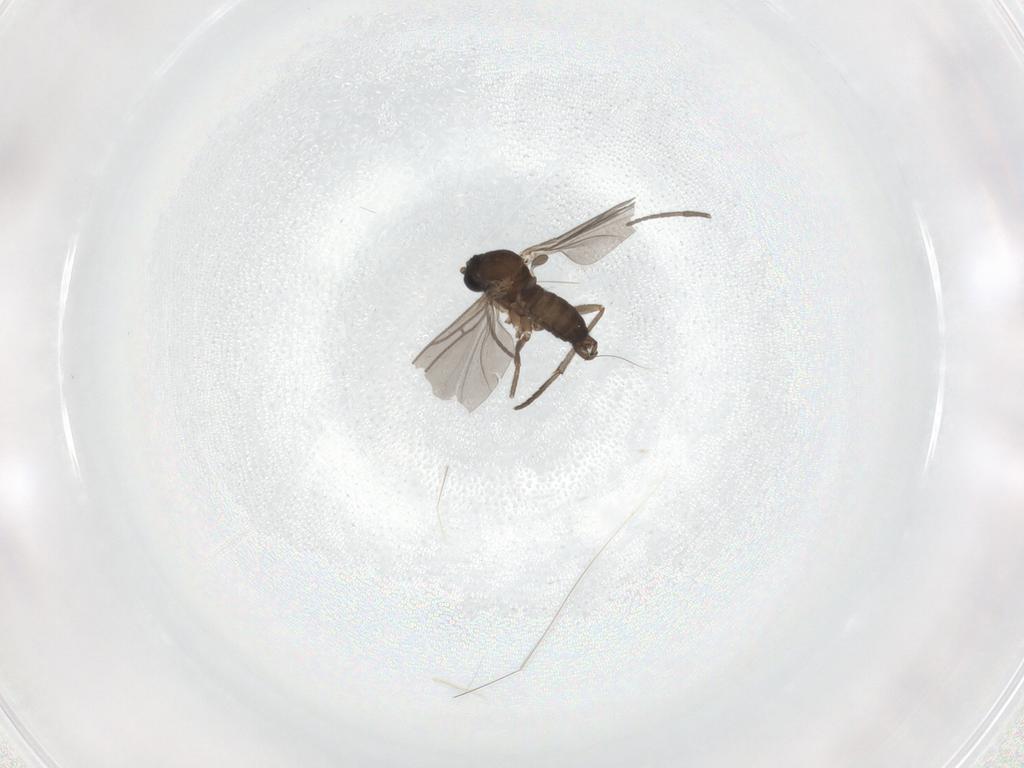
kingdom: Animalia
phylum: Arthropoda
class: Insecta
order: Diptera
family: Sciaridae
